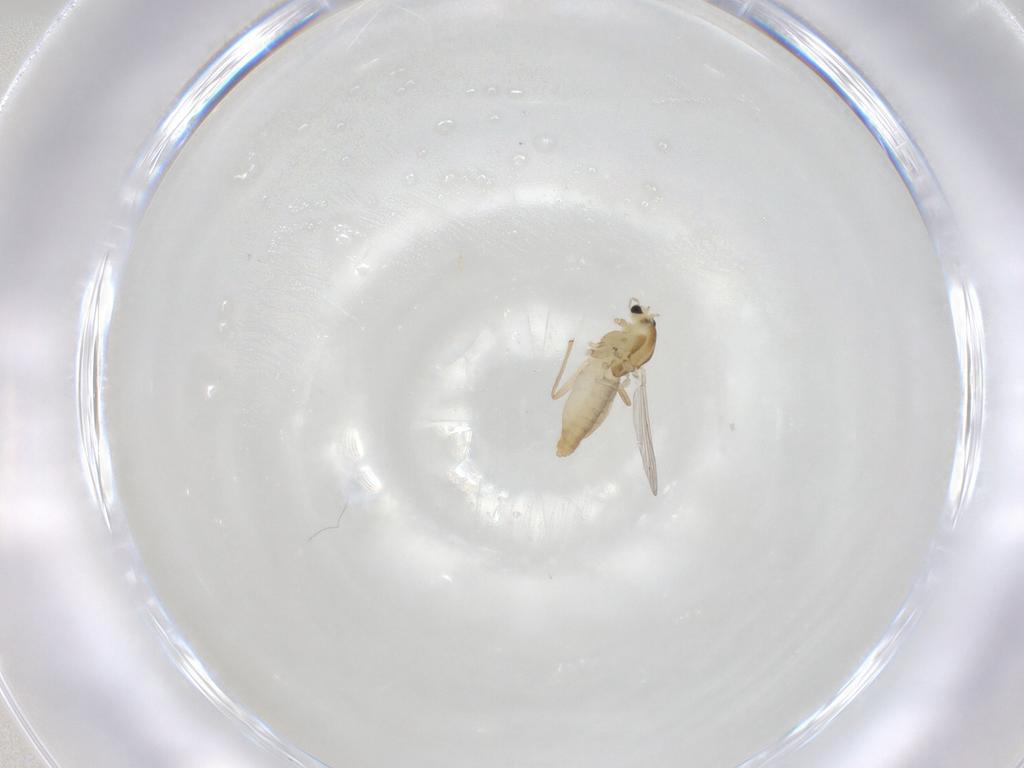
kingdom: Animalia
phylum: Arthropoda
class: Insecta
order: Diptera
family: Chironomidae
